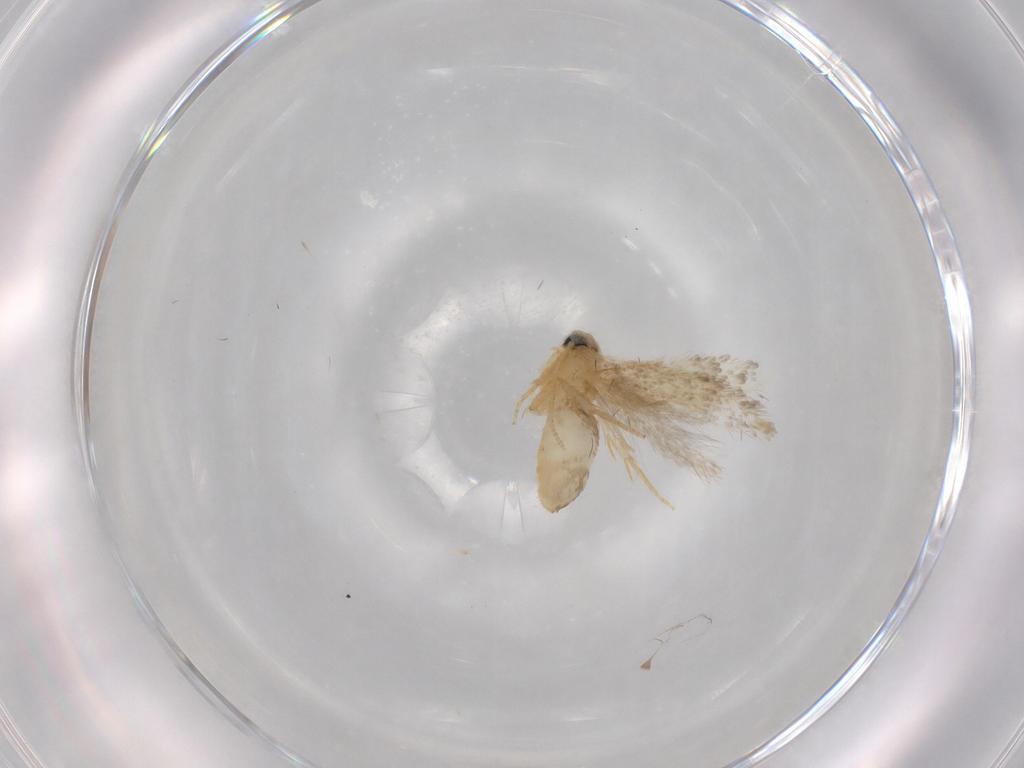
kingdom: Animalia
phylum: Arthropoda
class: Insecta
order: Lepidoptera
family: Nepticulidae
